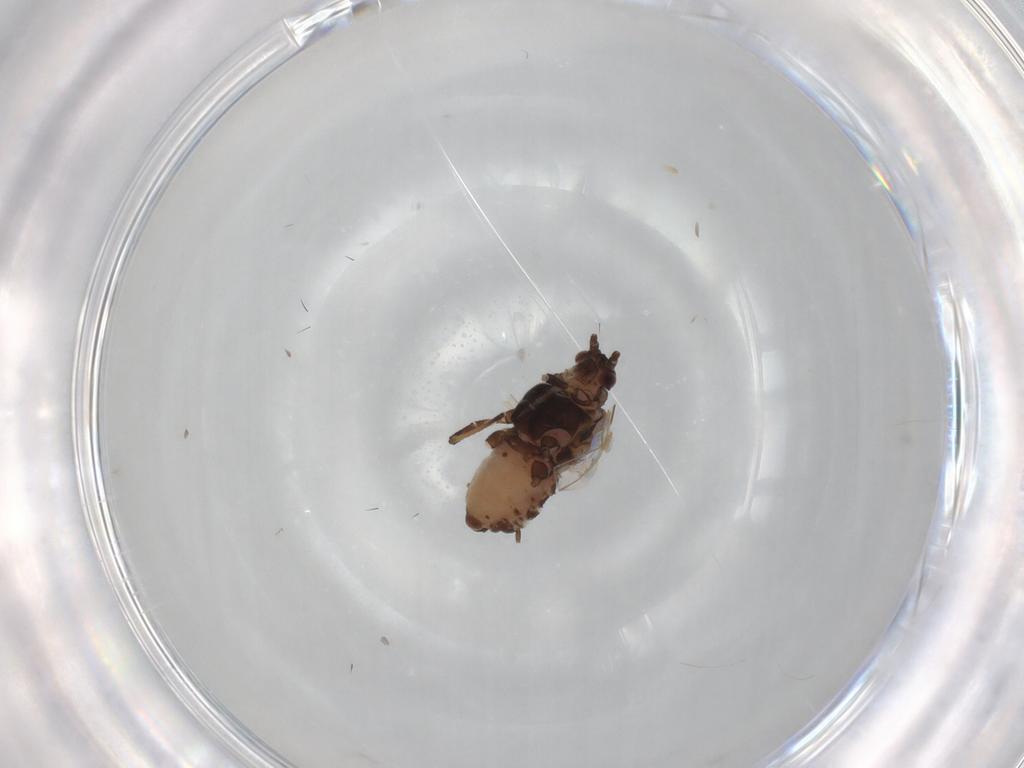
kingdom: Animalia
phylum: Arthropoda
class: Insecta
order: Hemiptera
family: Aphididae
